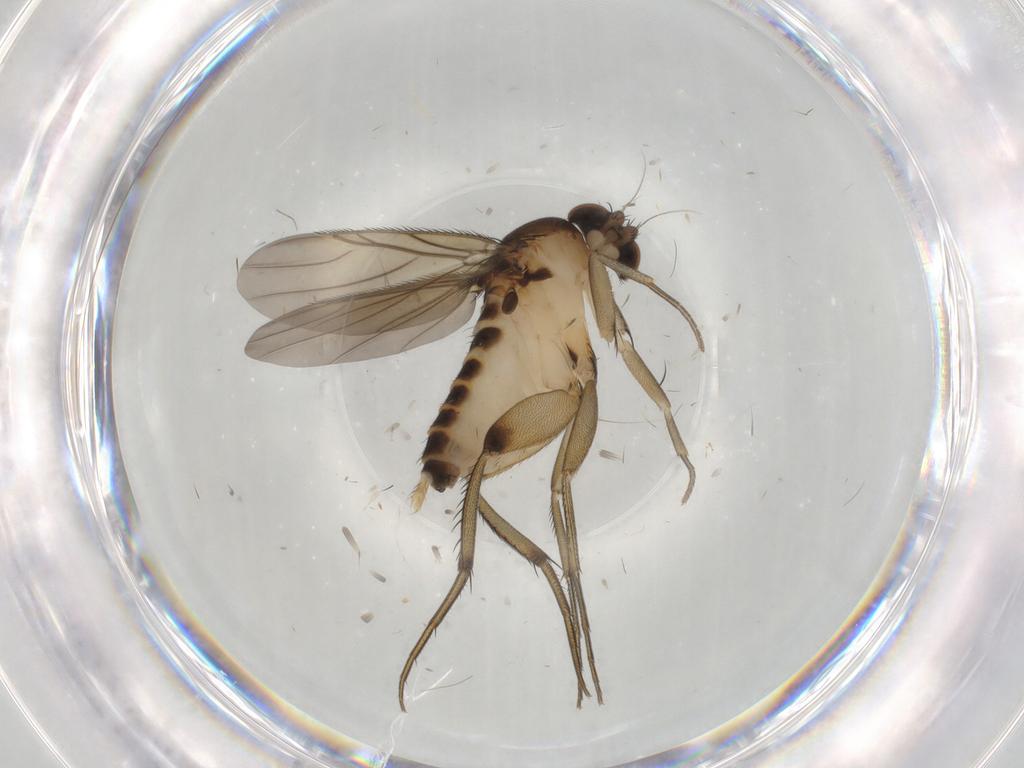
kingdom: Animalia
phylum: Arthropoda
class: Insecta
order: Diptera
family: Phoridae
